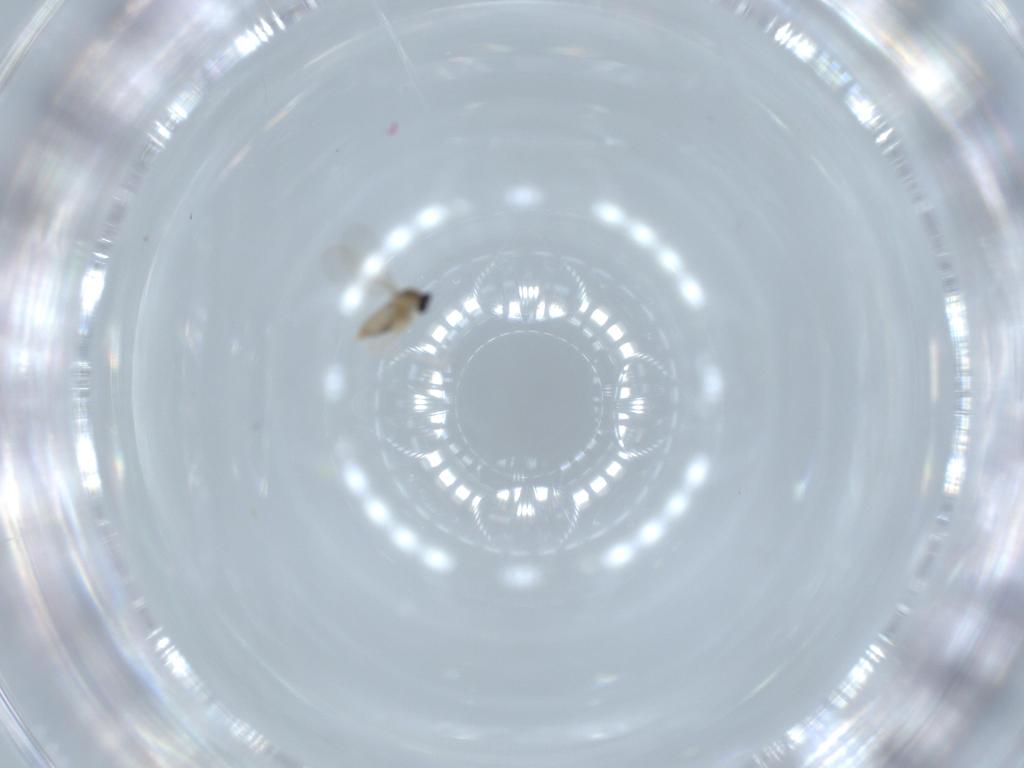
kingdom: Animalia
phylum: Arthropoda
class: Insecta
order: Diptera
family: Cecidomyiidae
